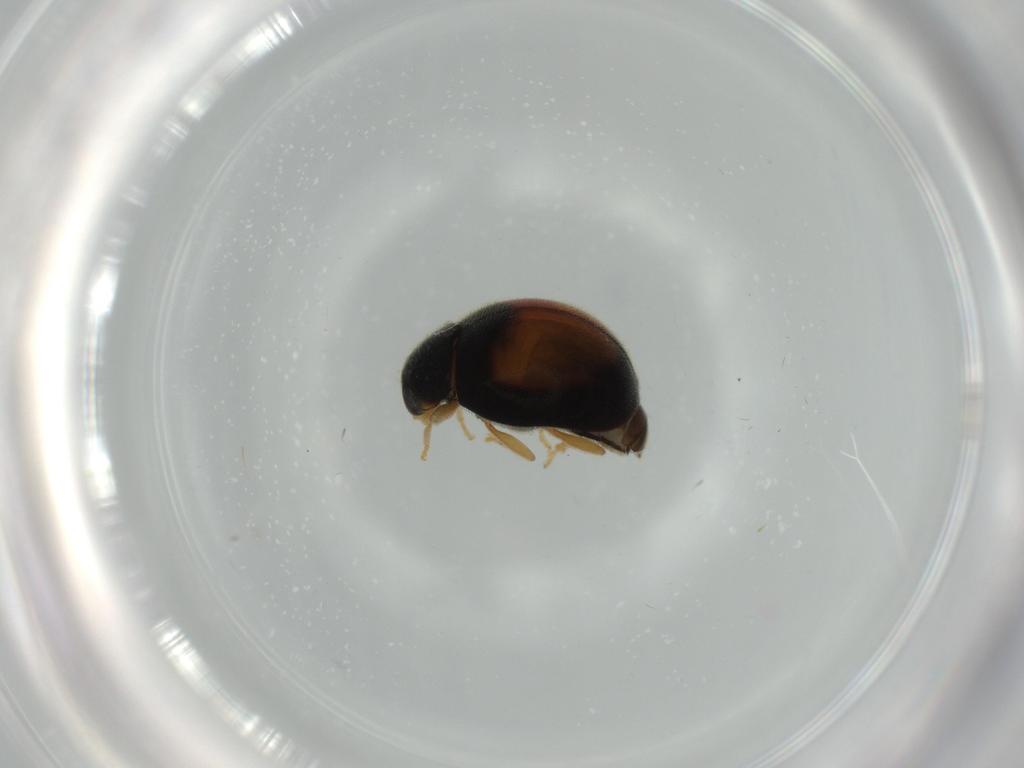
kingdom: Animalia
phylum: Arthropoda
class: Insecta
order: Coleoptera
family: Coccinellidae
